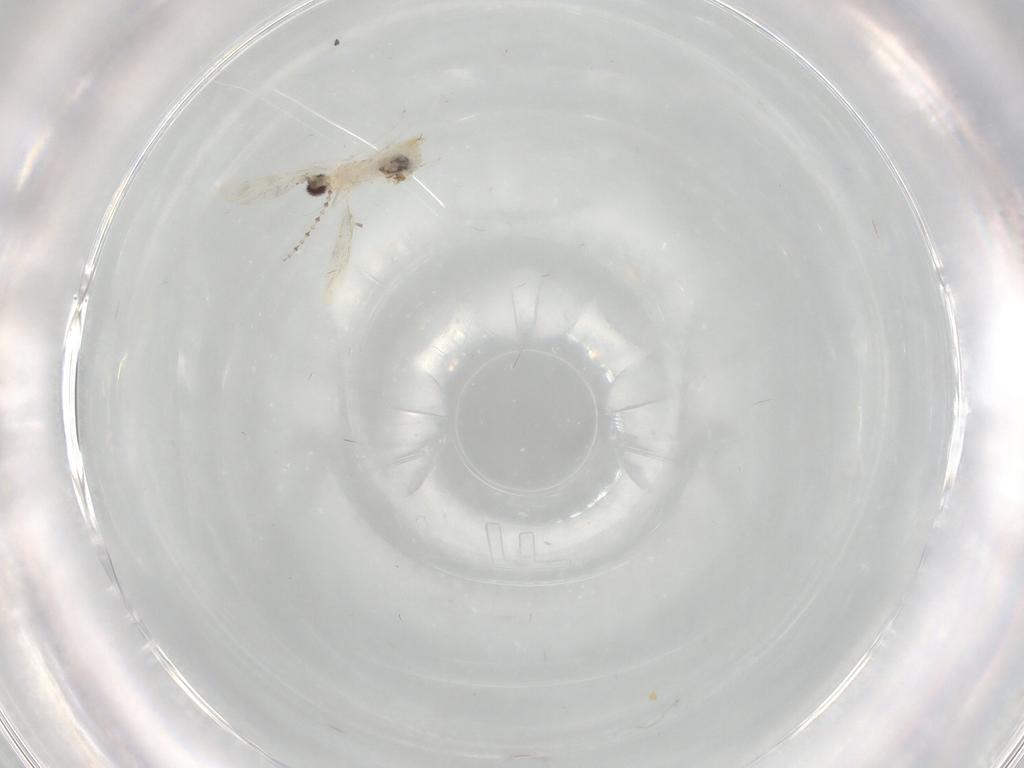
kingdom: Animalia
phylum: Arthropoda
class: Insecta
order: Diptera
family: Cecidomyiidae
